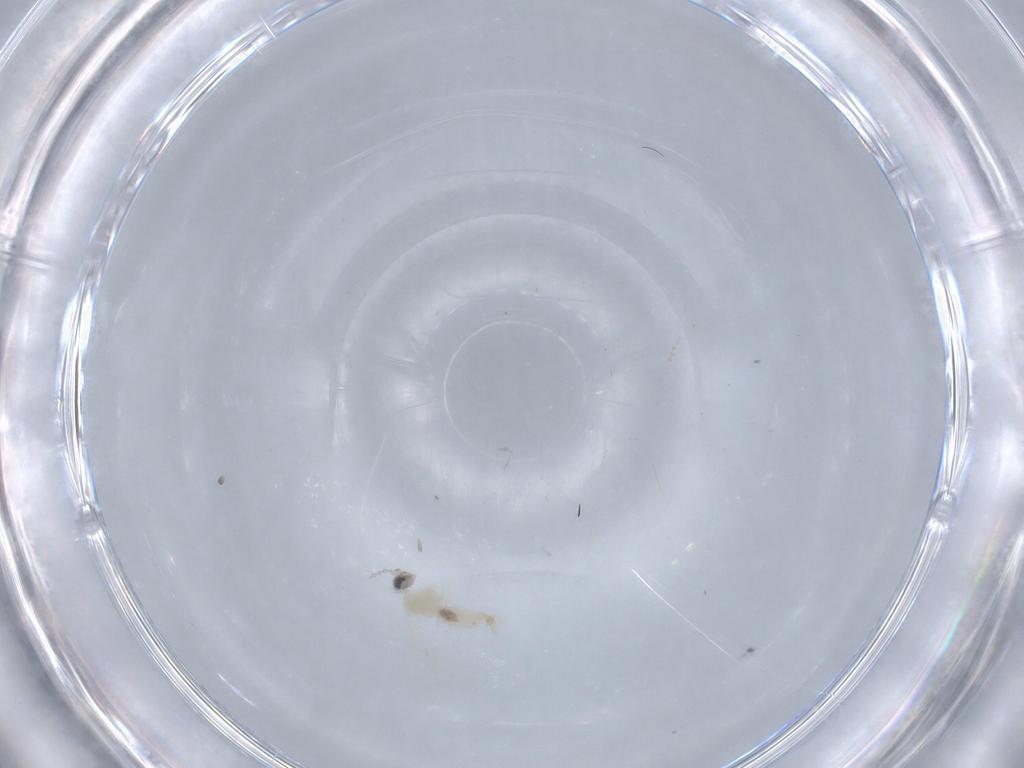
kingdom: Animalia
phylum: Arthropoda
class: Insecta
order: Diptera
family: Cecidomyiidae
